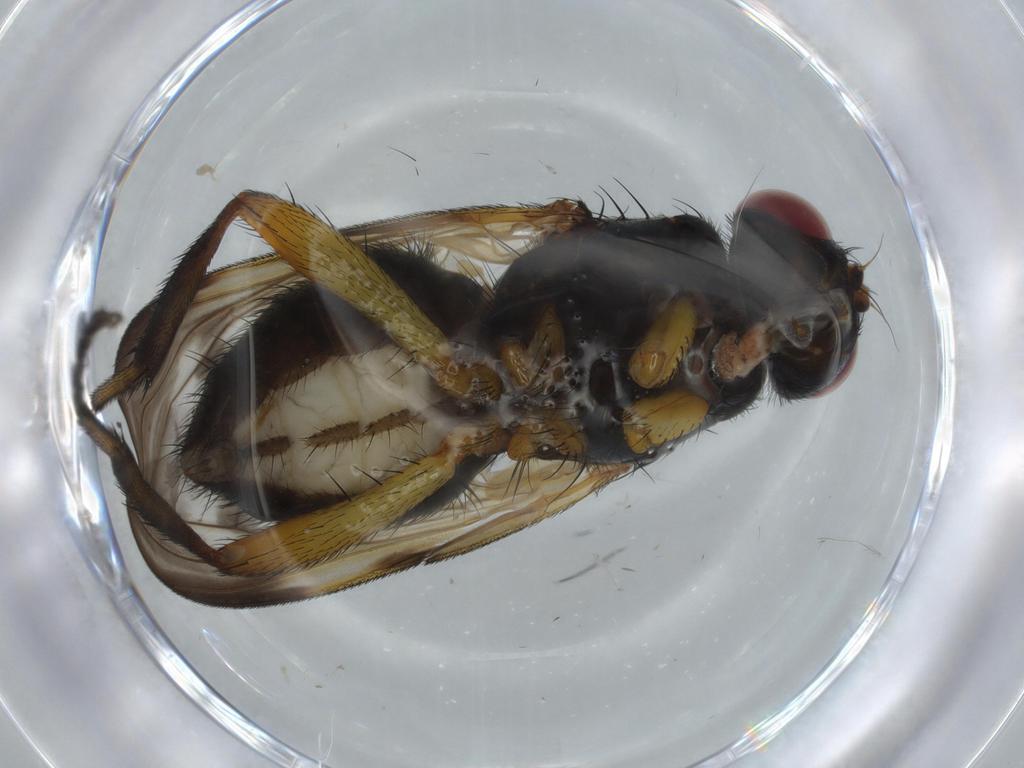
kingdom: Animalia
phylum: Arthropoda
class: Insecta
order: Diptera
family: Calliphoridae
